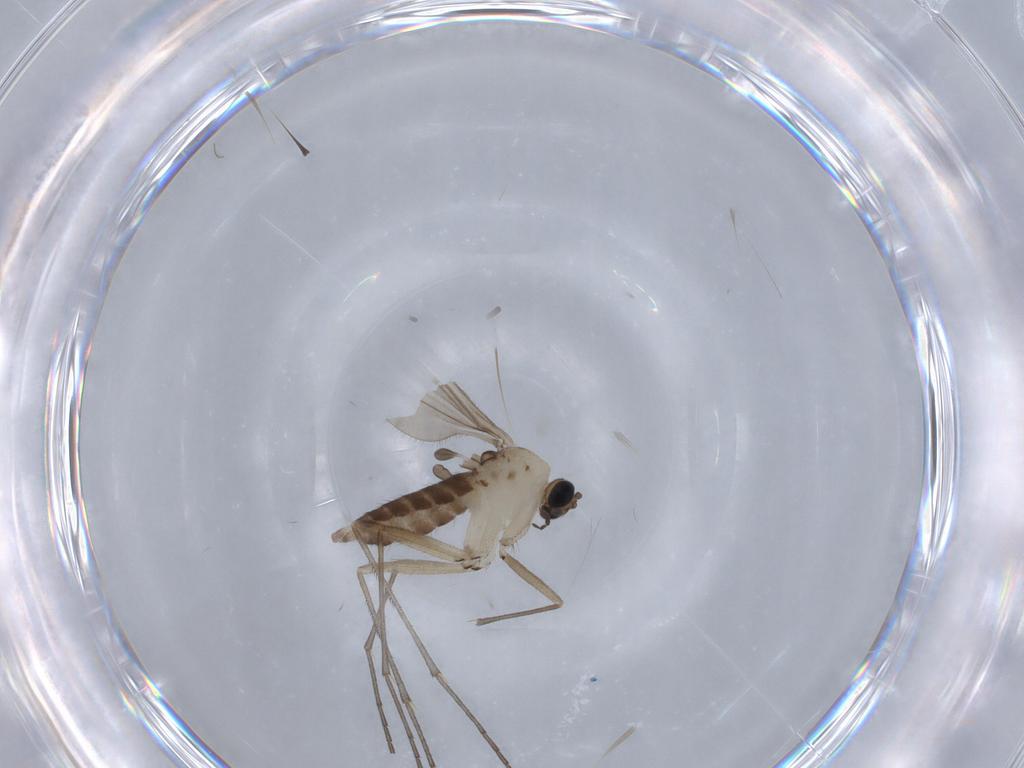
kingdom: Animalia
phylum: Arthropoda
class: Insecta
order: Diptera
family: Sciaridae
